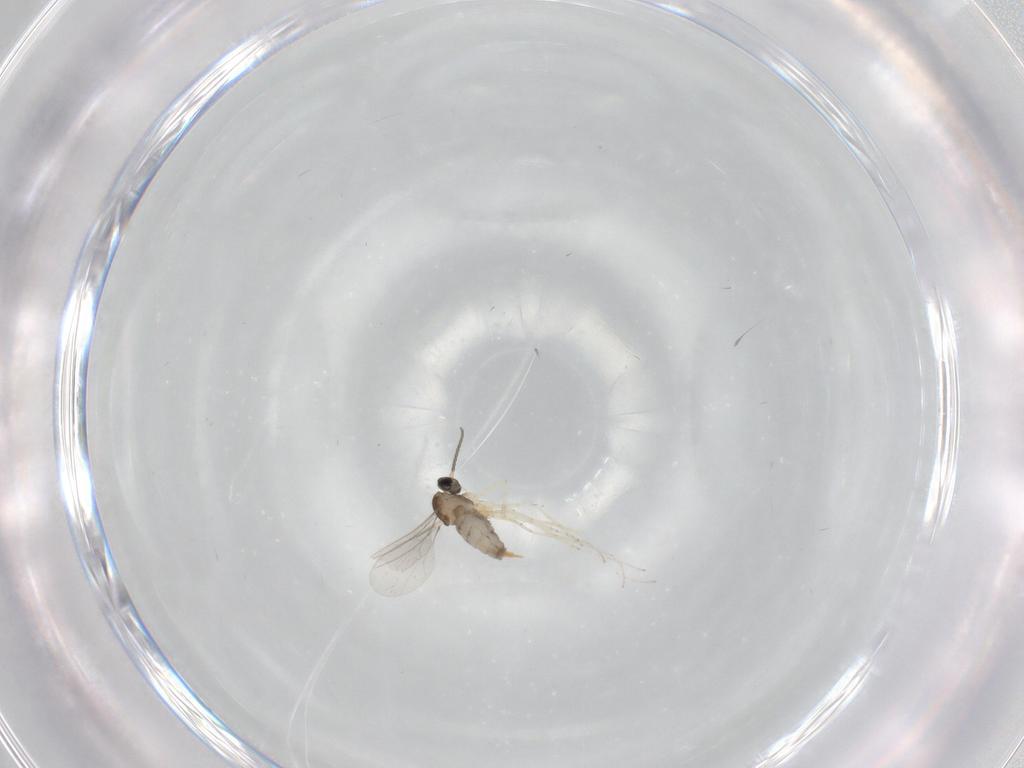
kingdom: Animalia
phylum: Arthropoda
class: Insecta
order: Diptera
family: Cecidomyiidae
